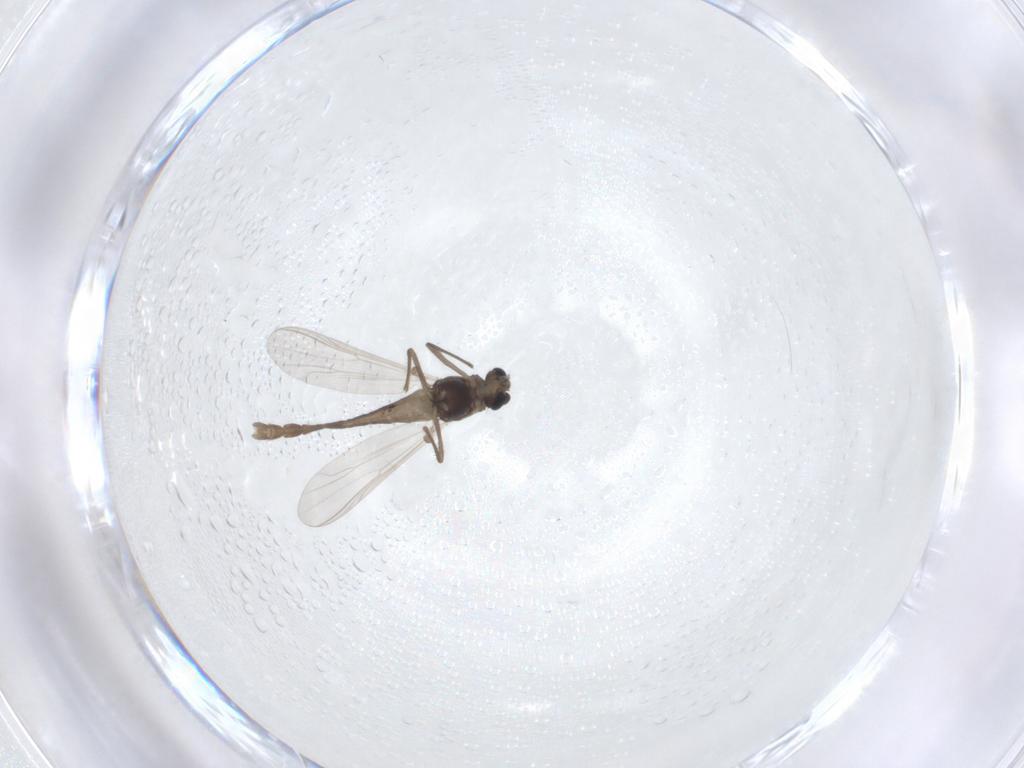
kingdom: Animalia
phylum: Arthropoda
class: Insecta
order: Diptera
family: Chironomidae
